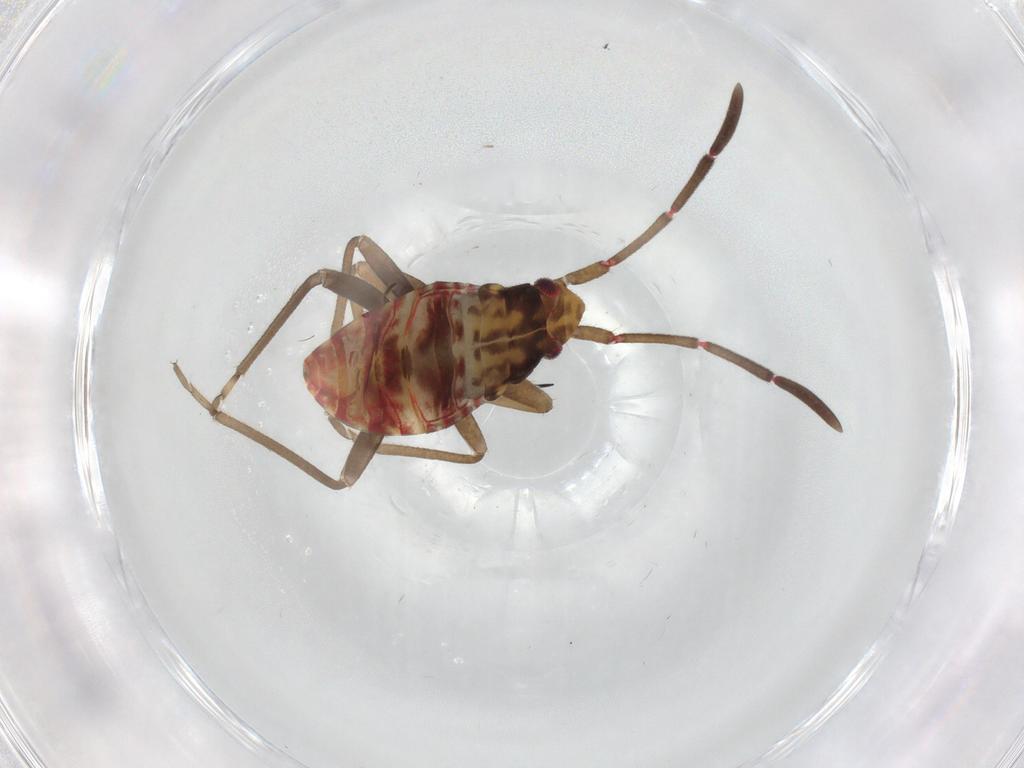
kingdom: Animalia
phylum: Arthropoda
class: Insecta
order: Hemiptera
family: Rhyparochromidae
